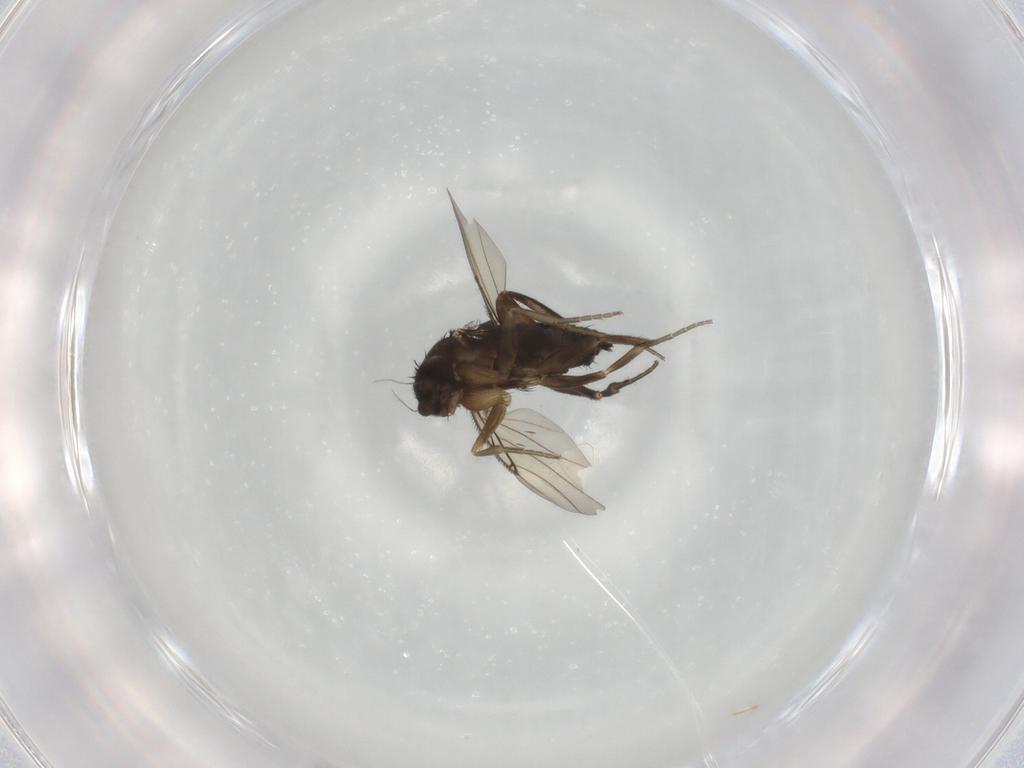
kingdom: Animalia
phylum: Arthropoda
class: Insecta
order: Diptera
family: Phoridae
